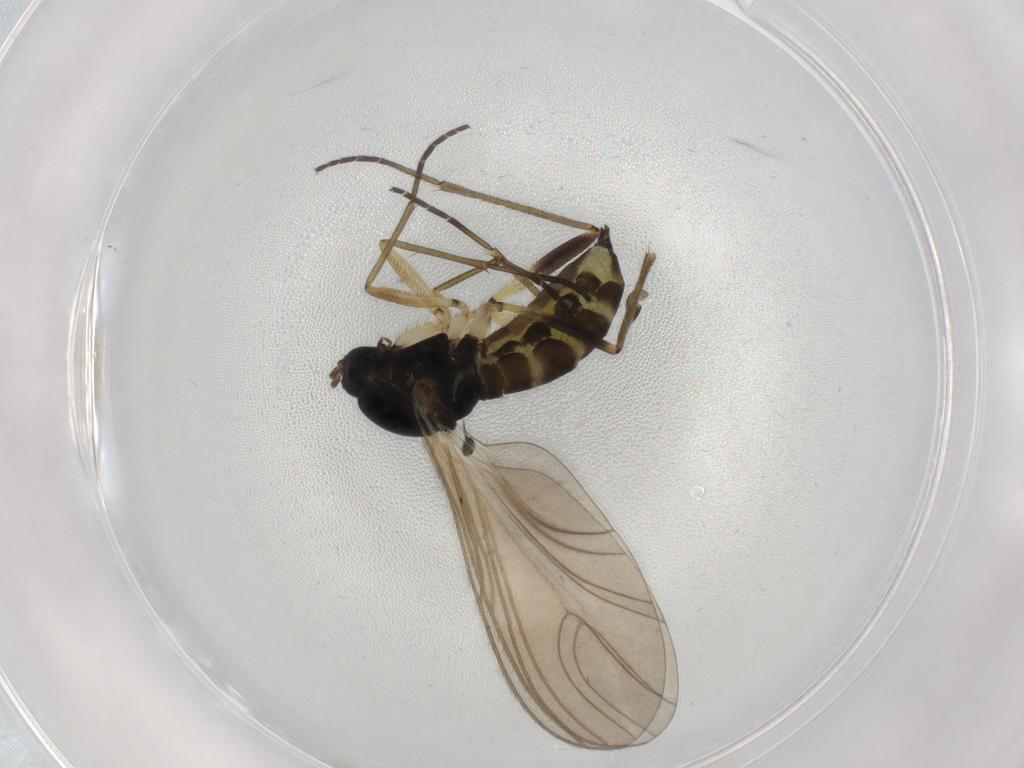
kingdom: Animalia
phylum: Arthropoda
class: Insecta
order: Diptera
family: Sciaridae
